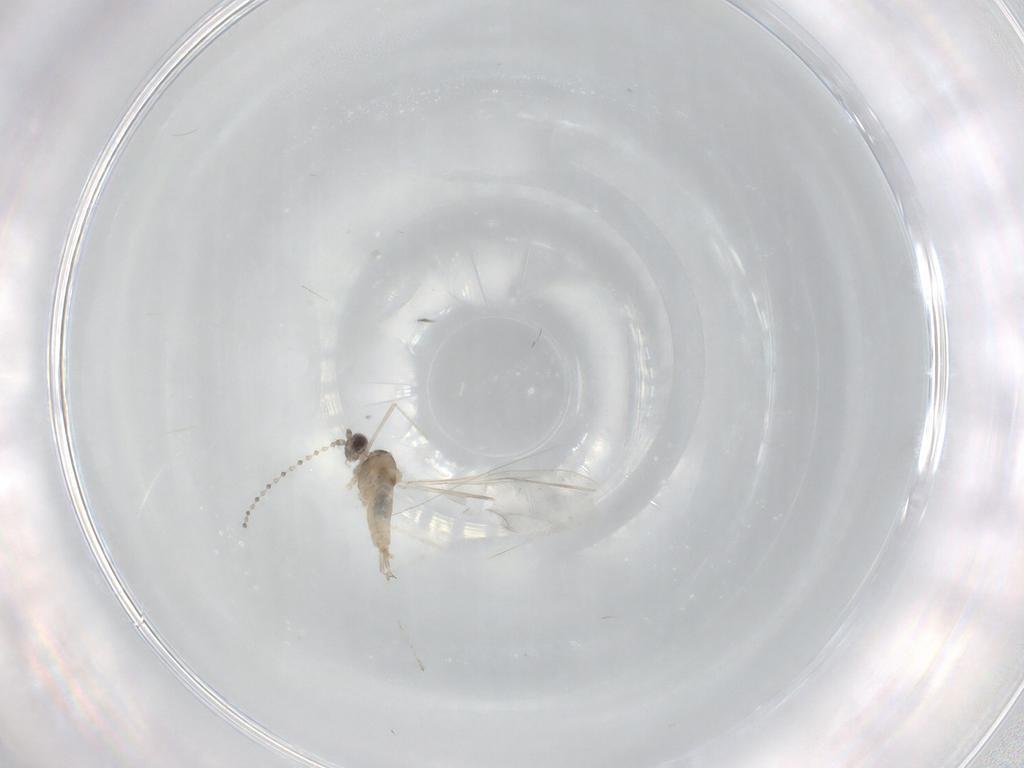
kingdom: Animalia
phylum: Arthropoda
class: Insecta
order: Diptera
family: Cecidomyiidae
